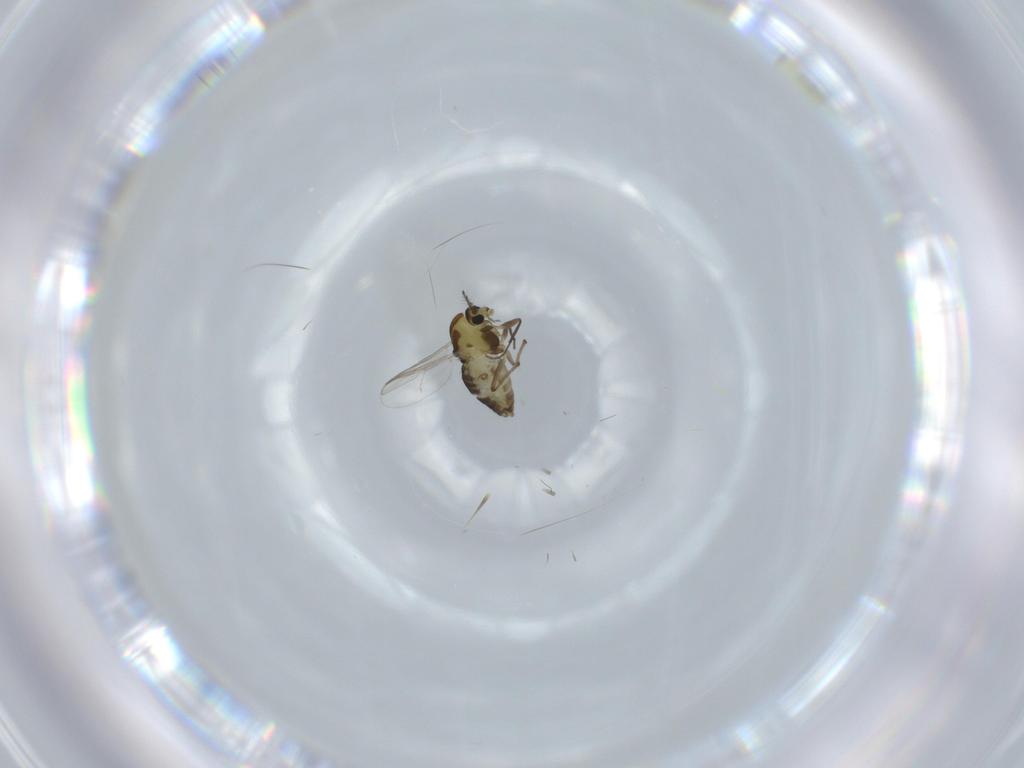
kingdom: Animalia
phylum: Arthropoda
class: Insecta
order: Diptera
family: Chironomidae
